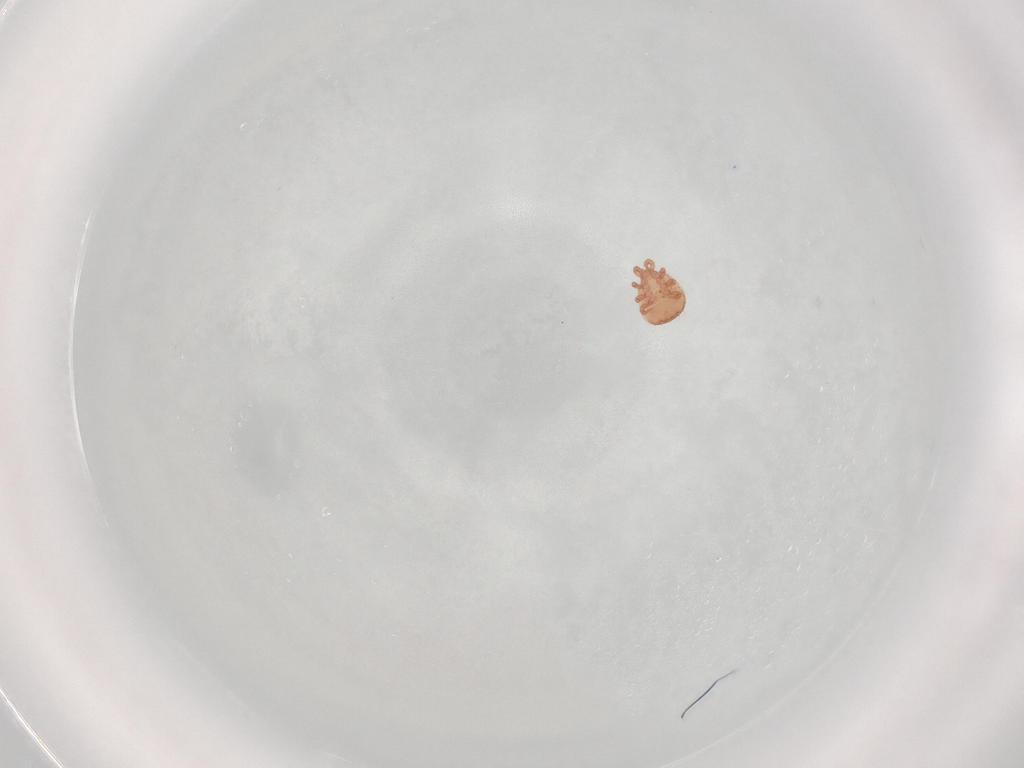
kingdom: Animalia
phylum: Arthropoda
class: Arachnida
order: Mesostigmata
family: Zerconidae
